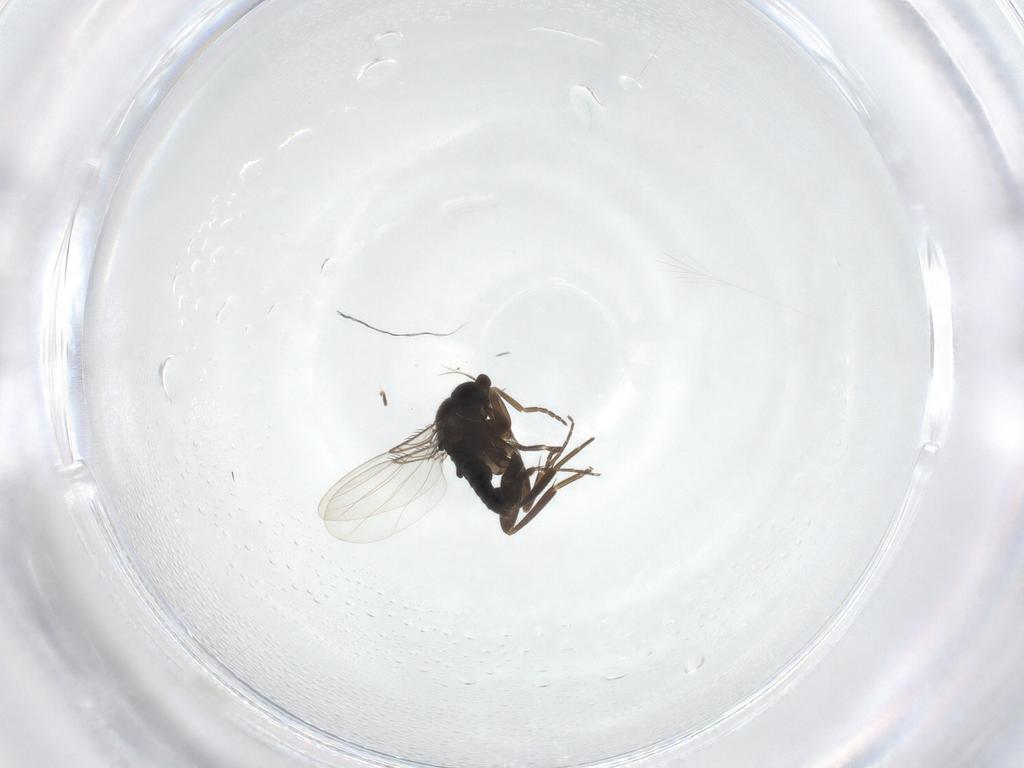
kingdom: Animalia
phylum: Arthropoda
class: Insecta
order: Diptera
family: Phoridae
